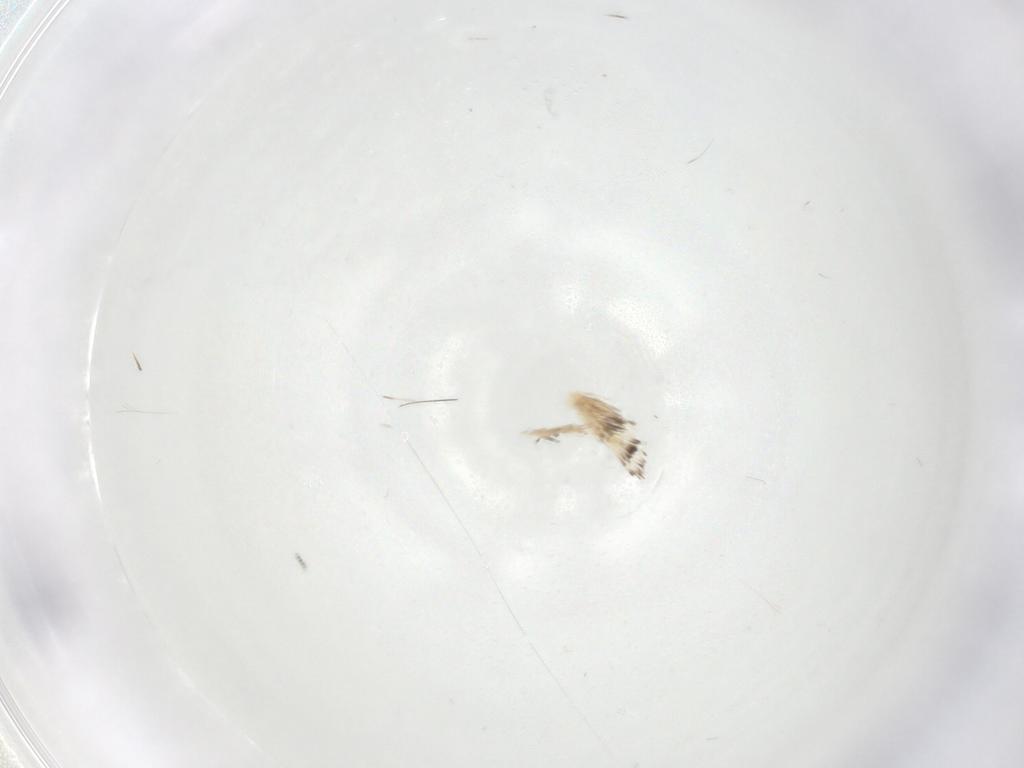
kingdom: Animalia
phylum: Arthropoda
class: Insecta
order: Lepidoptera
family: Gracillariidae
